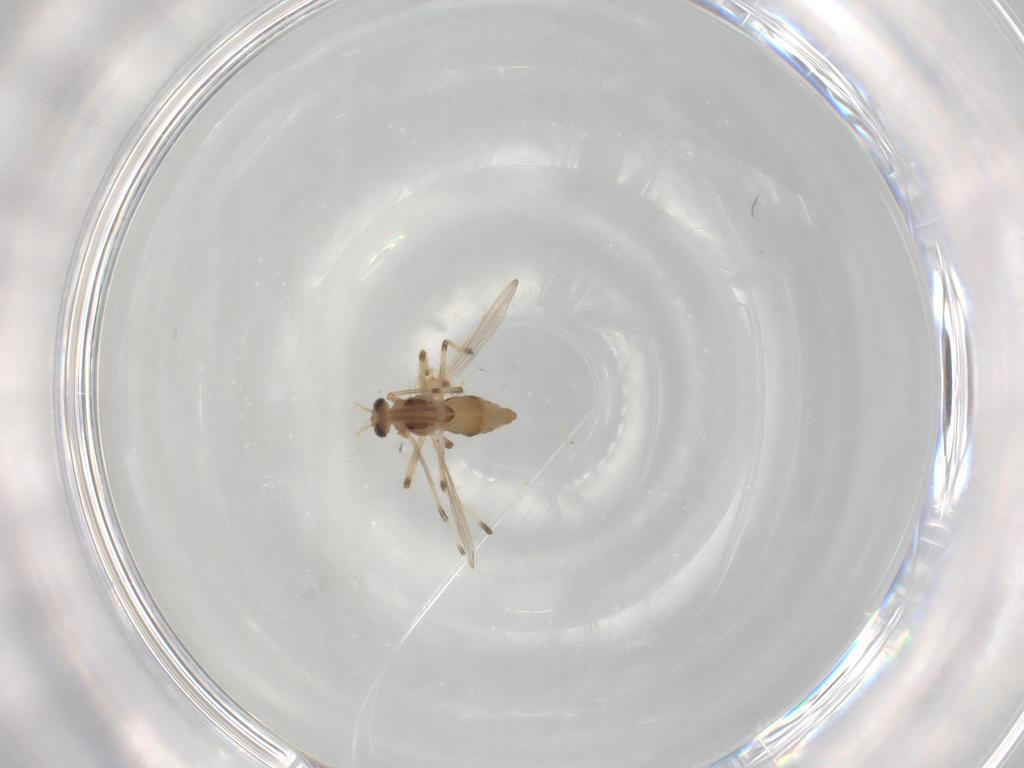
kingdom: Animalia
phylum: Arthropoda
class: Insecta
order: Diptera
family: Chironomidae
